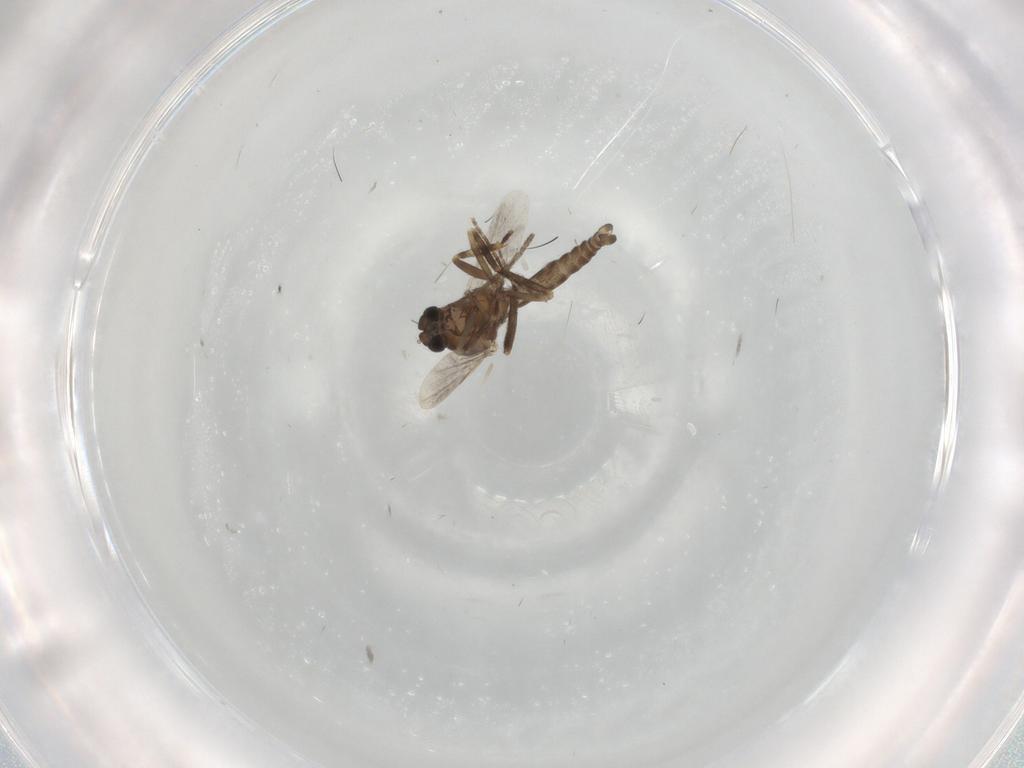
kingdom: Animalia
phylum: Arthropoda
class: Insecta
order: Diptera
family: Ceratopogonidae
